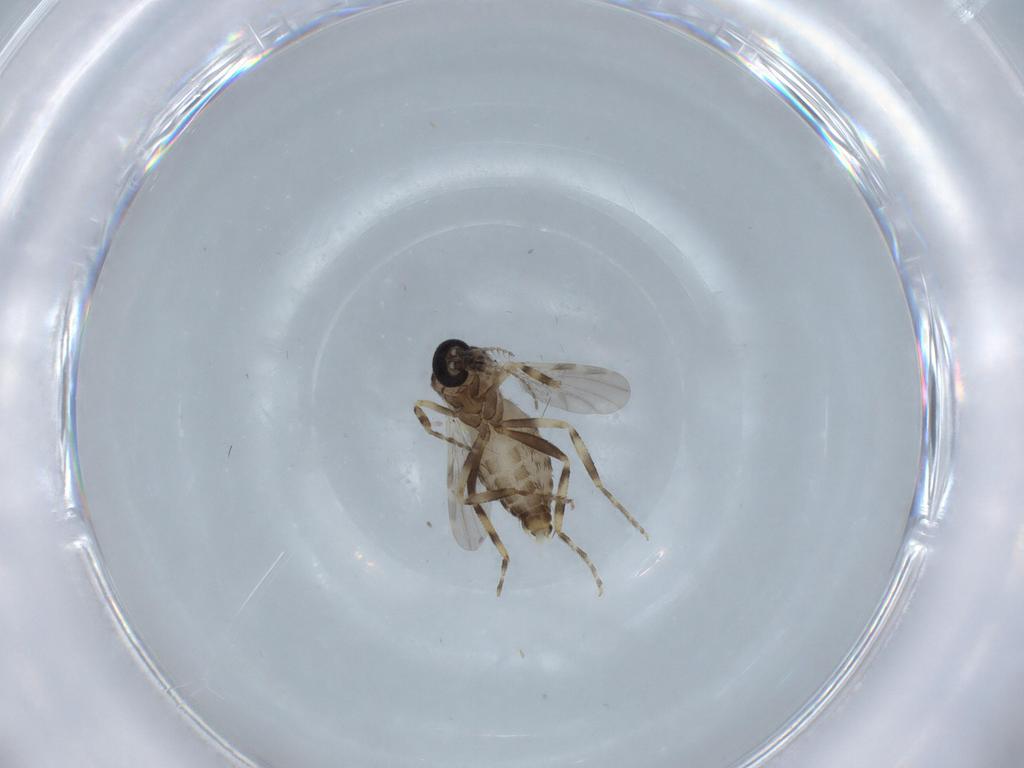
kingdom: Animalia
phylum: Arthropoda
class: Insecta
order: Diptera
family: Ceratopogonidae
